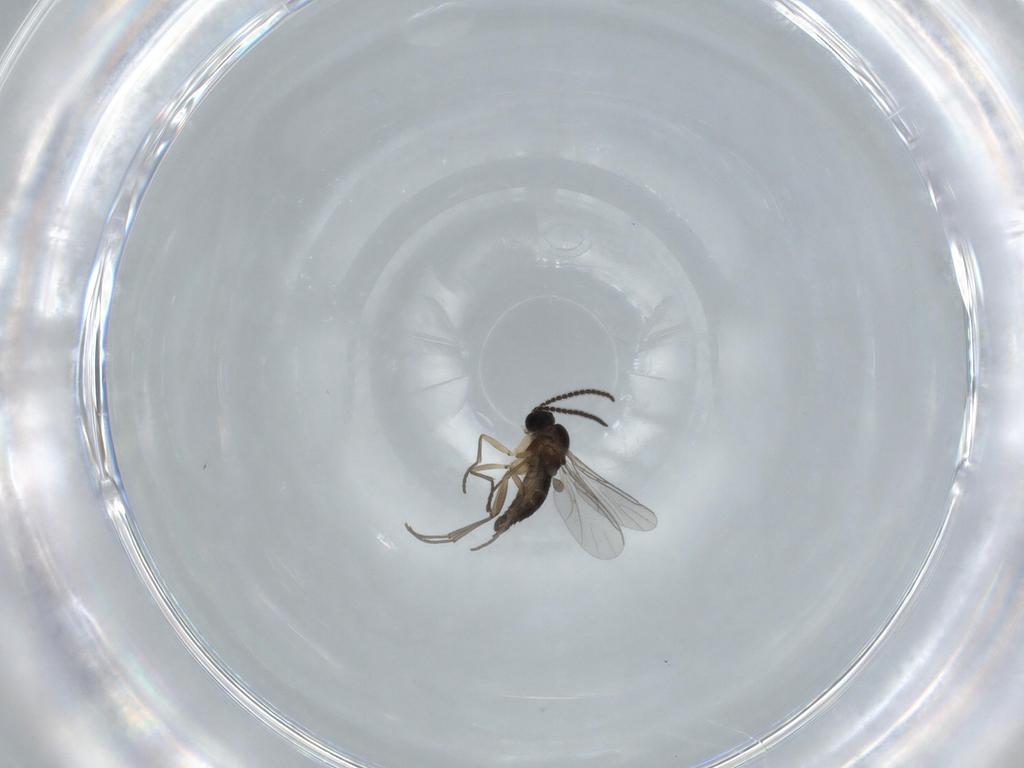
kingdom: Animalia
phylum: Arthropoda
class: Insecta
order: Diptera
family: Sciaridae
